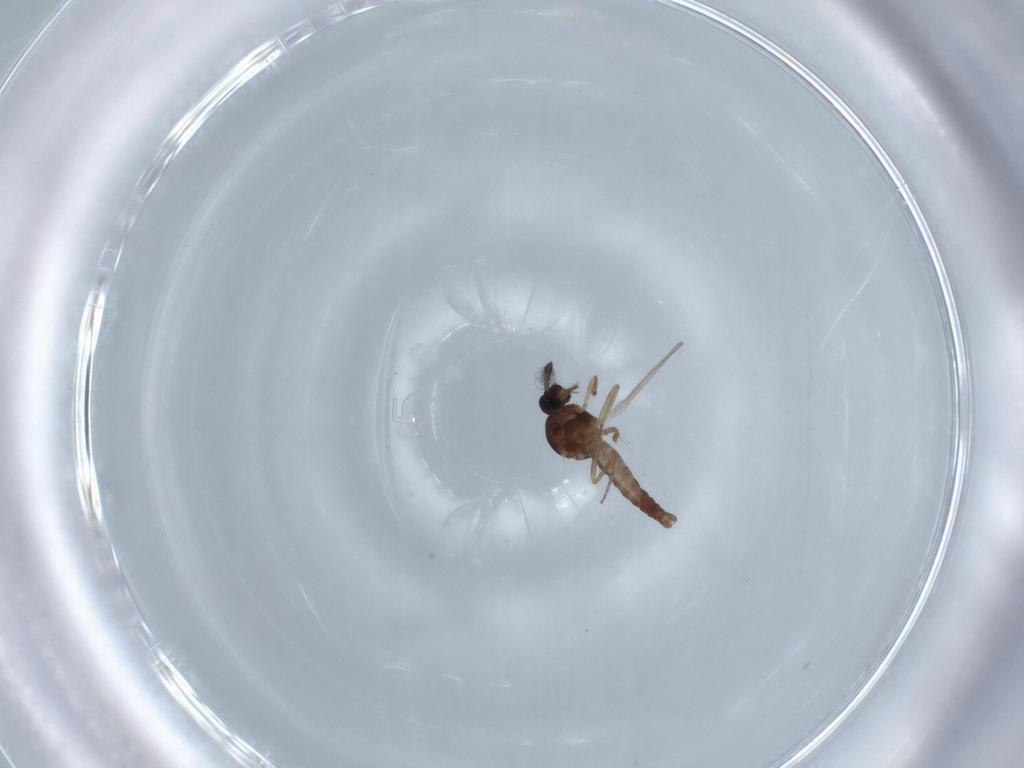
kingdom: Animalia
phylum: Arthropoda
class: Insecta
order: Diptera
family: Ceratopogonidae
